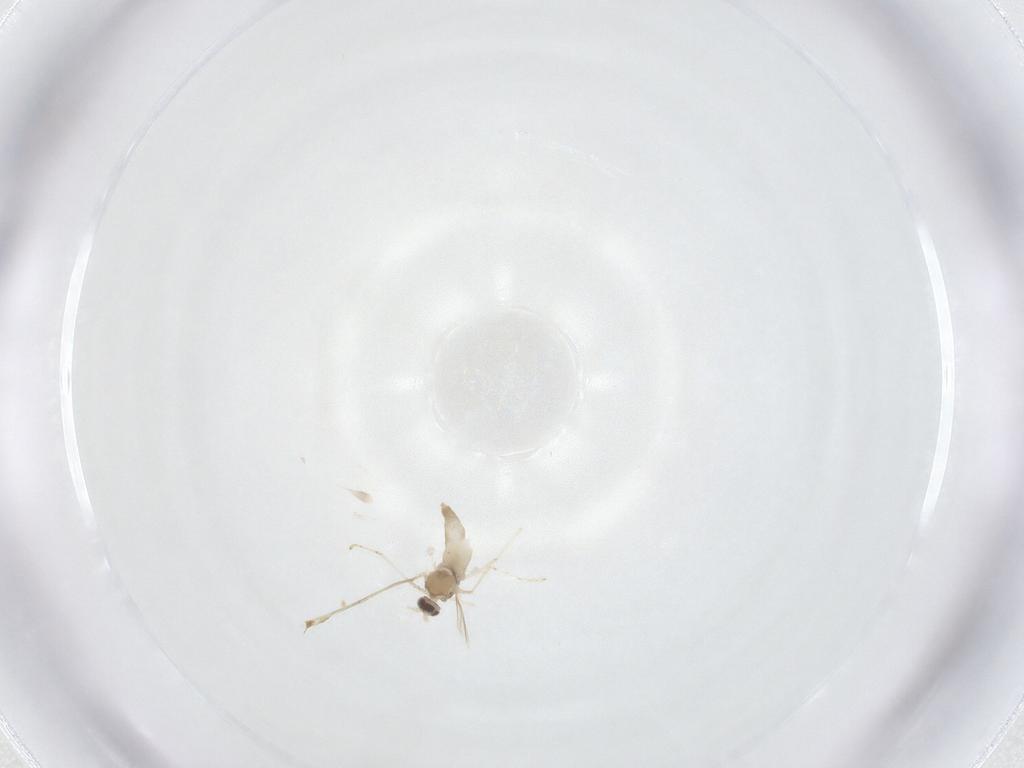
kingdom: Animalia
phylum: Arthropoda
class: Insecta
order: Diptera
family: Cecidomyiidae
